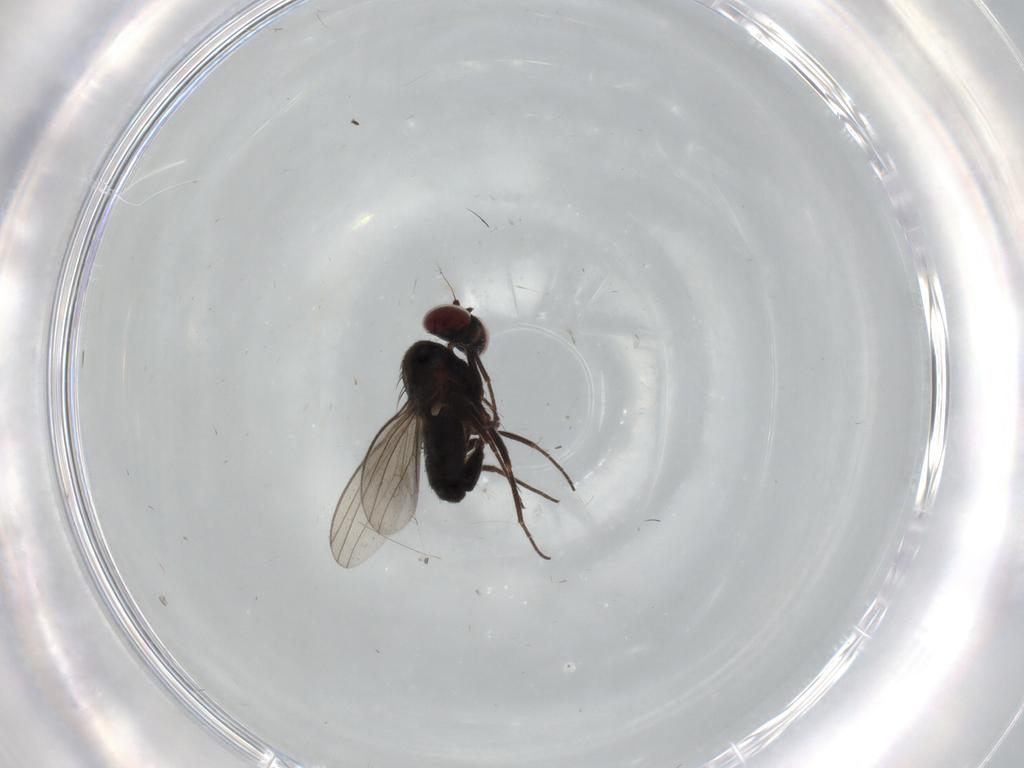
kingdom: Animalia
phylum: Arthropoda
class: Insecta
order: Diptera
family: Dolichopodidae
